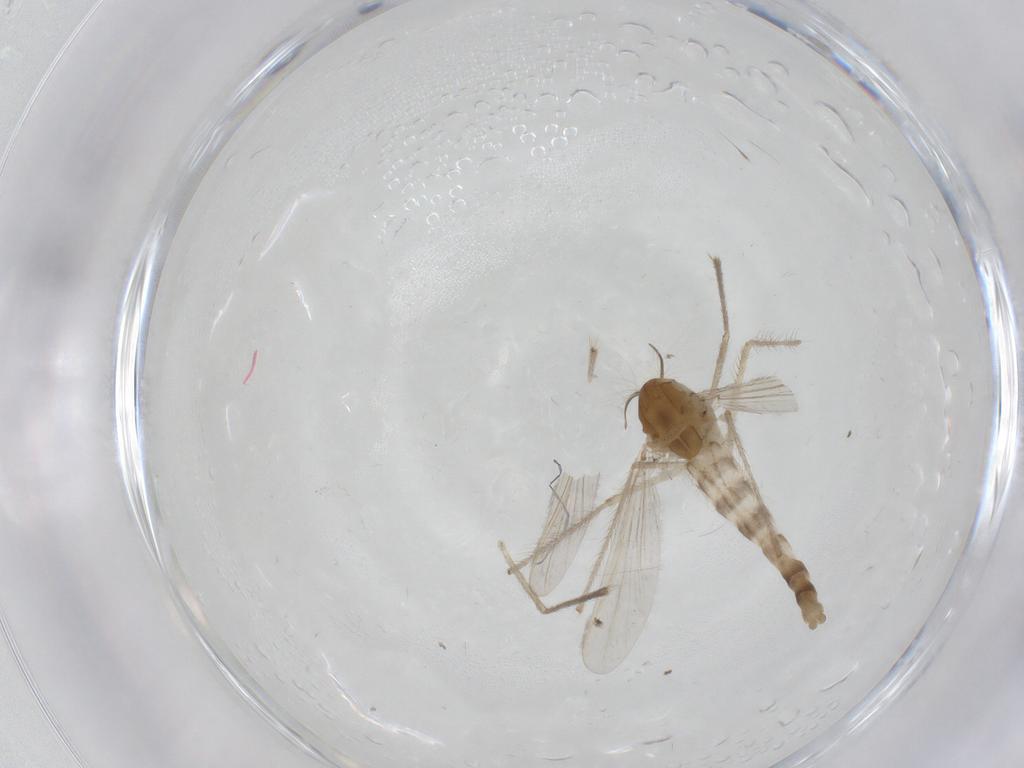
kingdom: Animalia
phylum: Arthropoda
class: Insecta
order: Diptera
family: Chironomidae
